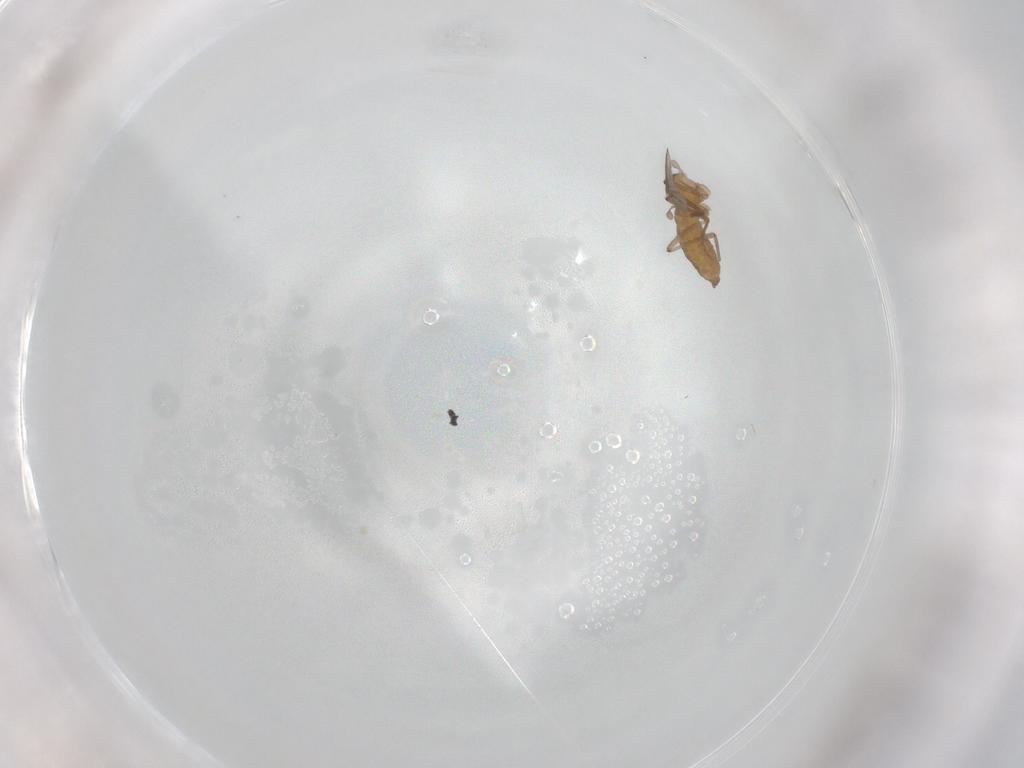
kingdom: Animalia
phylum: Arthropoda
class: Insecta
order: Diptera
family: Cecidomyiidae
